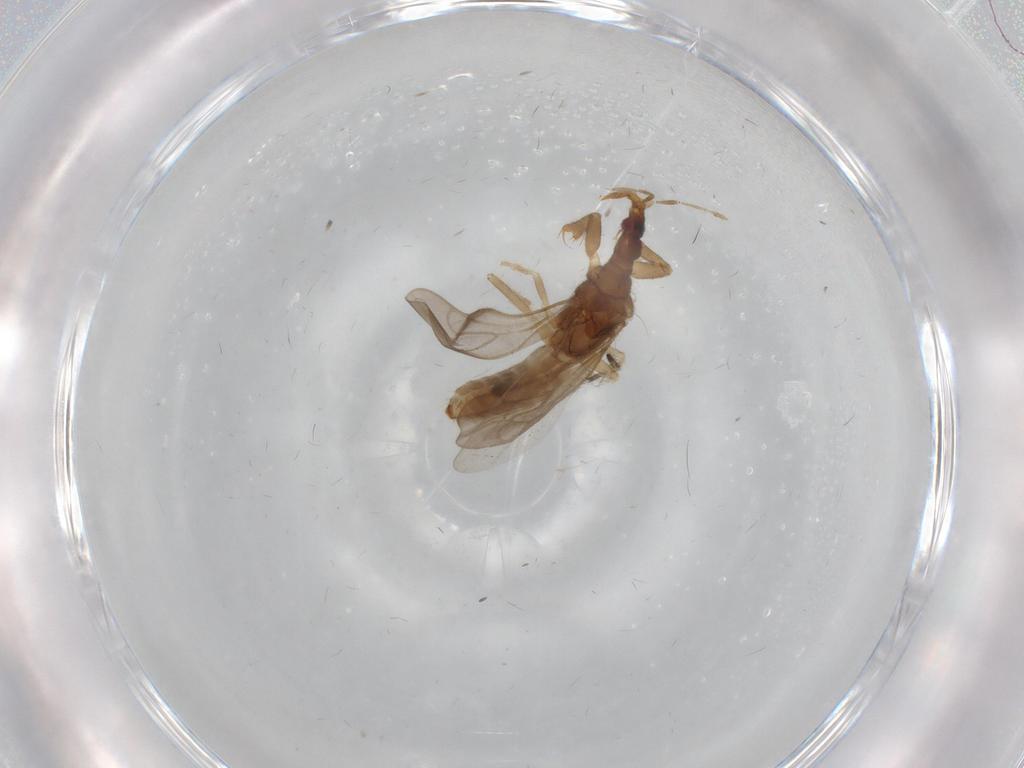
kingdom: Animalia
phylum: Arthropoda
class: Insecta
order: Hemiptera
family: Enicocephalidae
